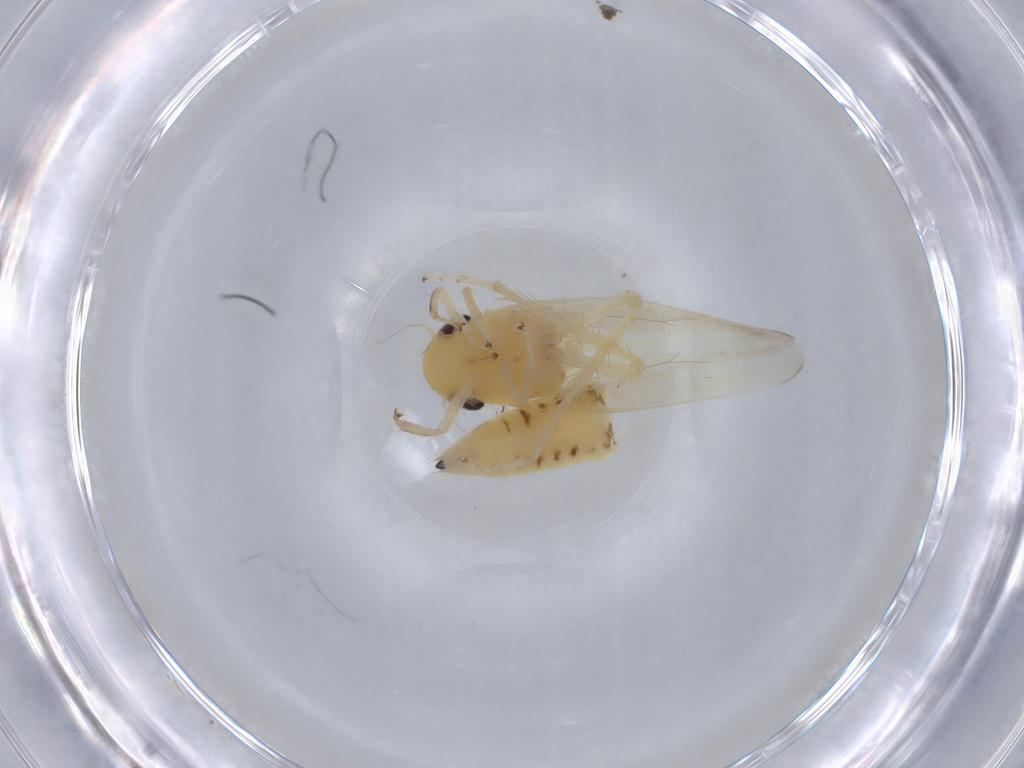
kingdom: Animalia
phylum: Arthropoda
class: Insecta
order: Hemiptera
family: Cicadellidae
